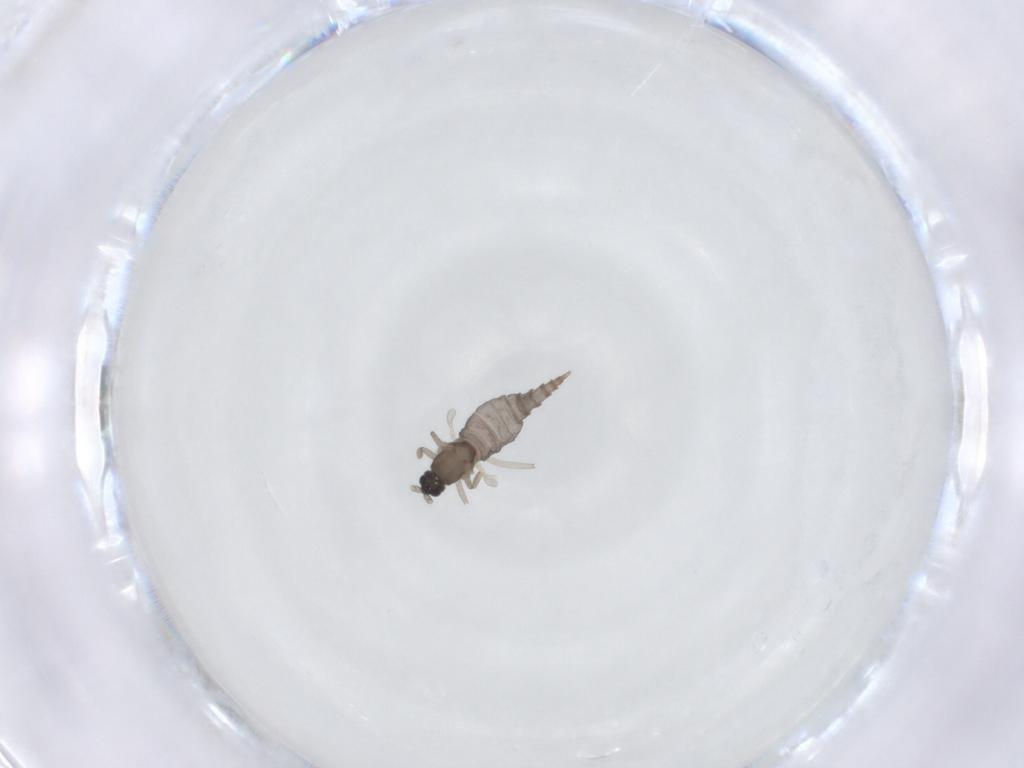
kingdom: Animalia
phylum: Arthropoda
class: Insecta
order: Diptera
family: Cecidomyiidae
